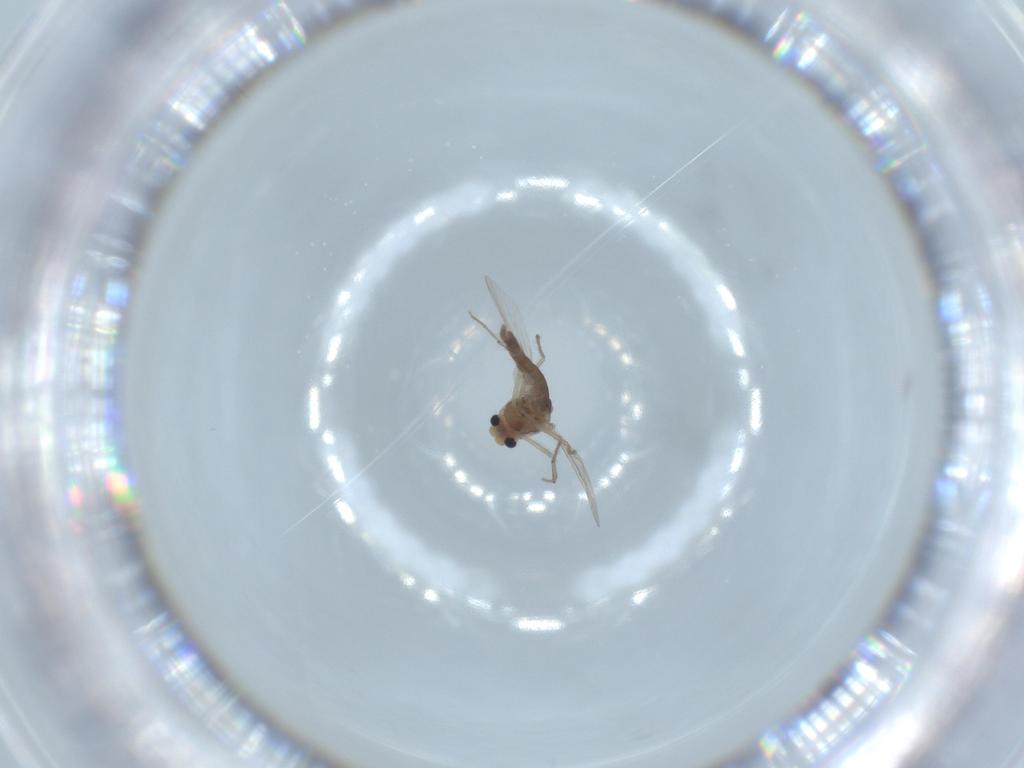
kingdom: Animalia
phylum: Arthropoda
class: Insecta
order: Diptera
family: Chironomidae
